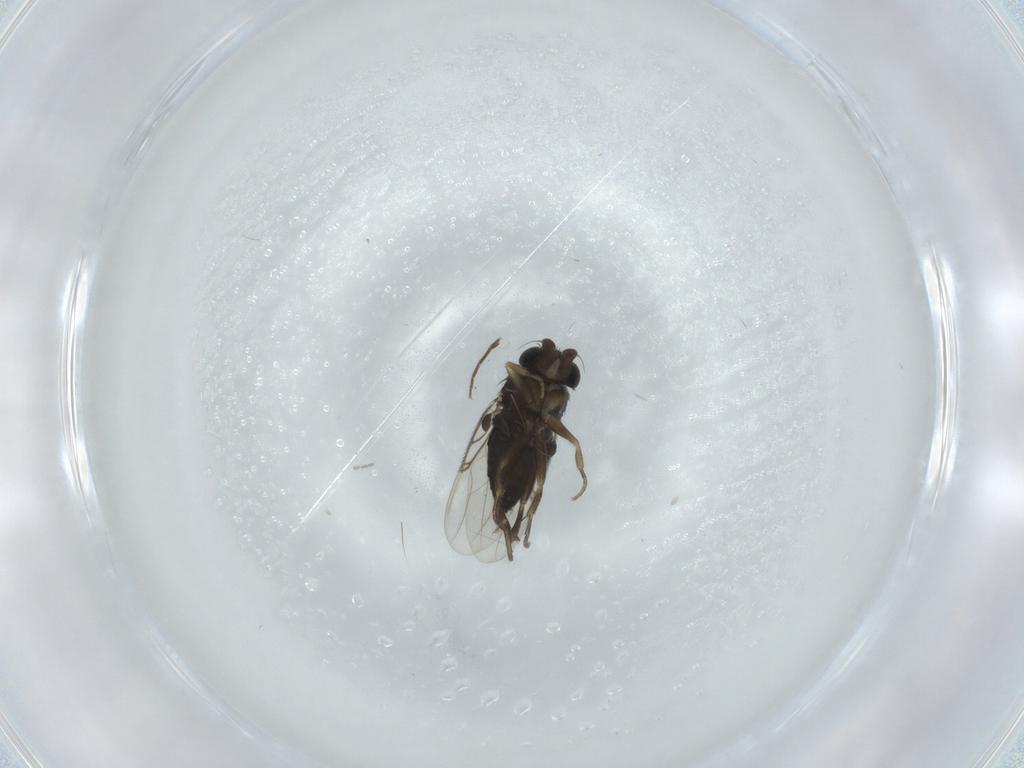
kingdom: Animalia
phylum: Arthropoda
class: Insecta
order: Diptera
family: Phoridae
